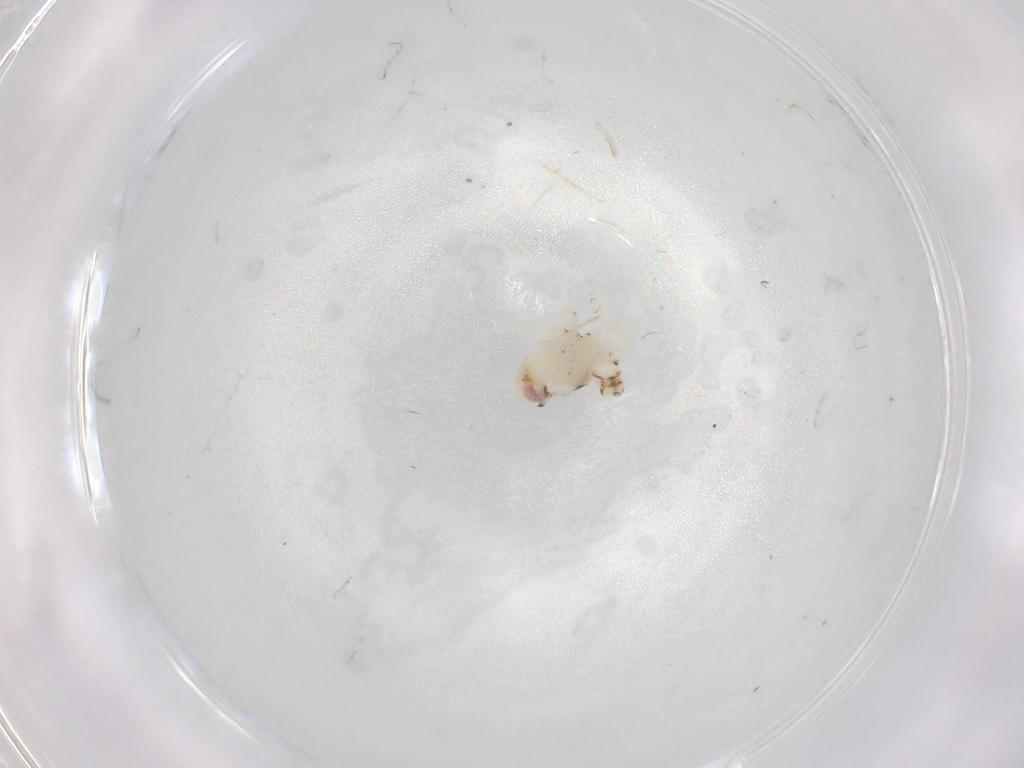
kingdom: Animalia
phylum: Arthropoda
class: Insecta
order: Hemiptera
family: Nogodinidae
